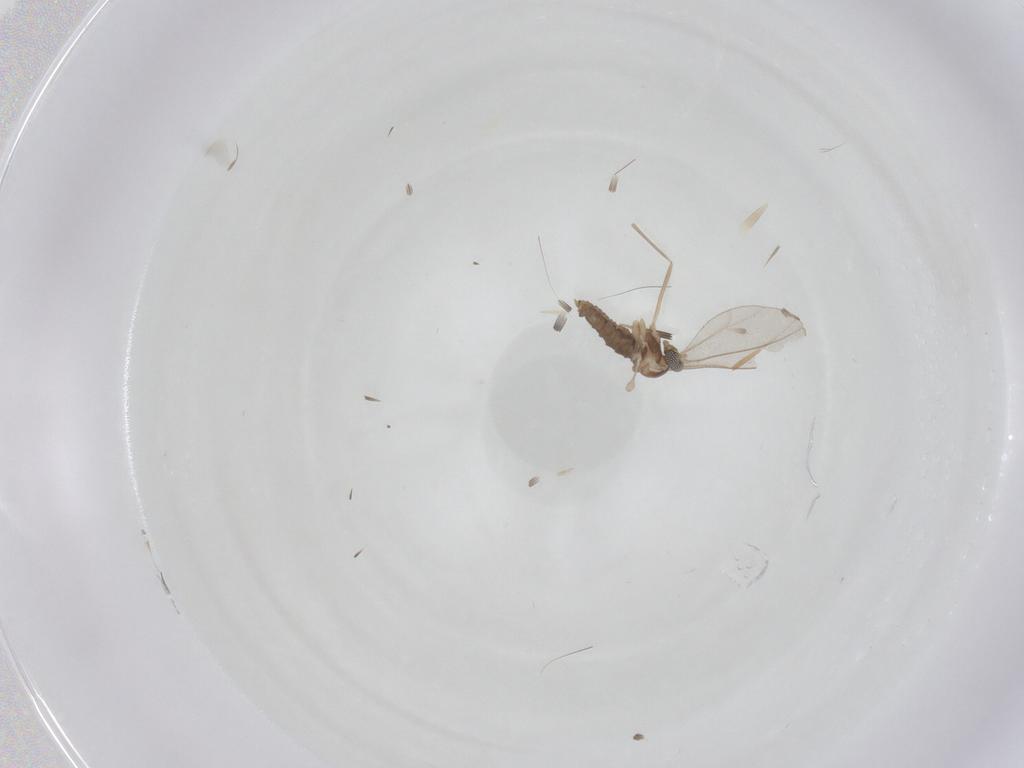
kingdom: Animalia
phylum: Arthropoda
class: Insecta
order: Diptera
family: Cecidomyiidae
